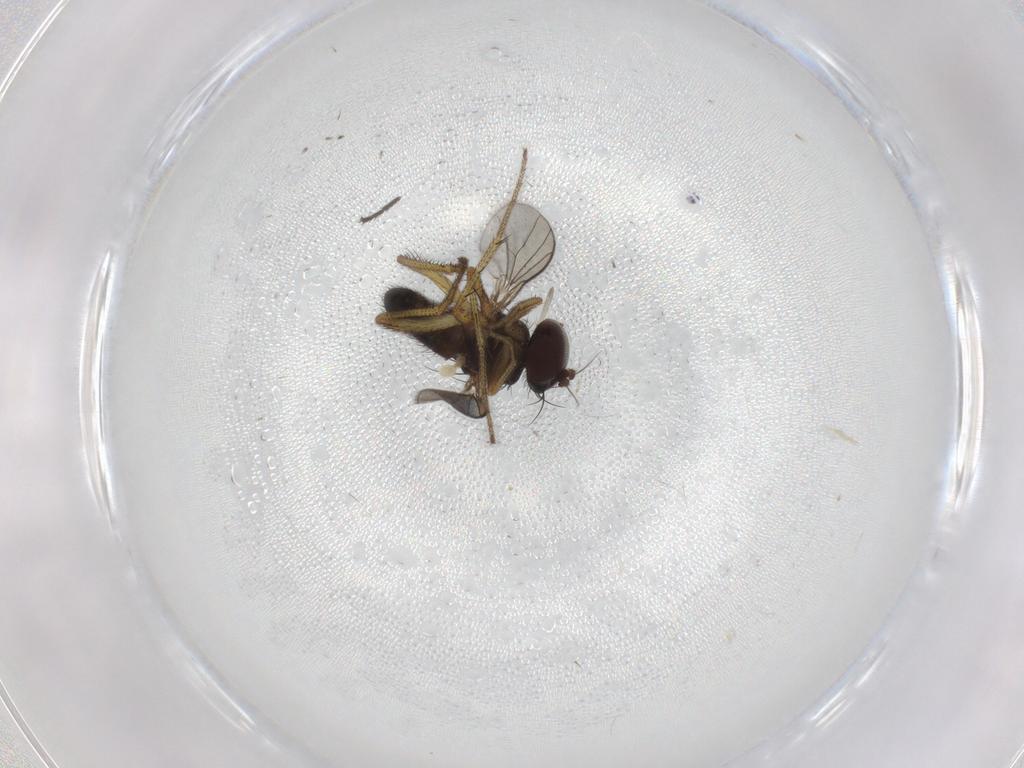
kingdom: Animalia
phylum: Arthropoda
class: Insecta
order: Diptera
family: Dolichopodidae
